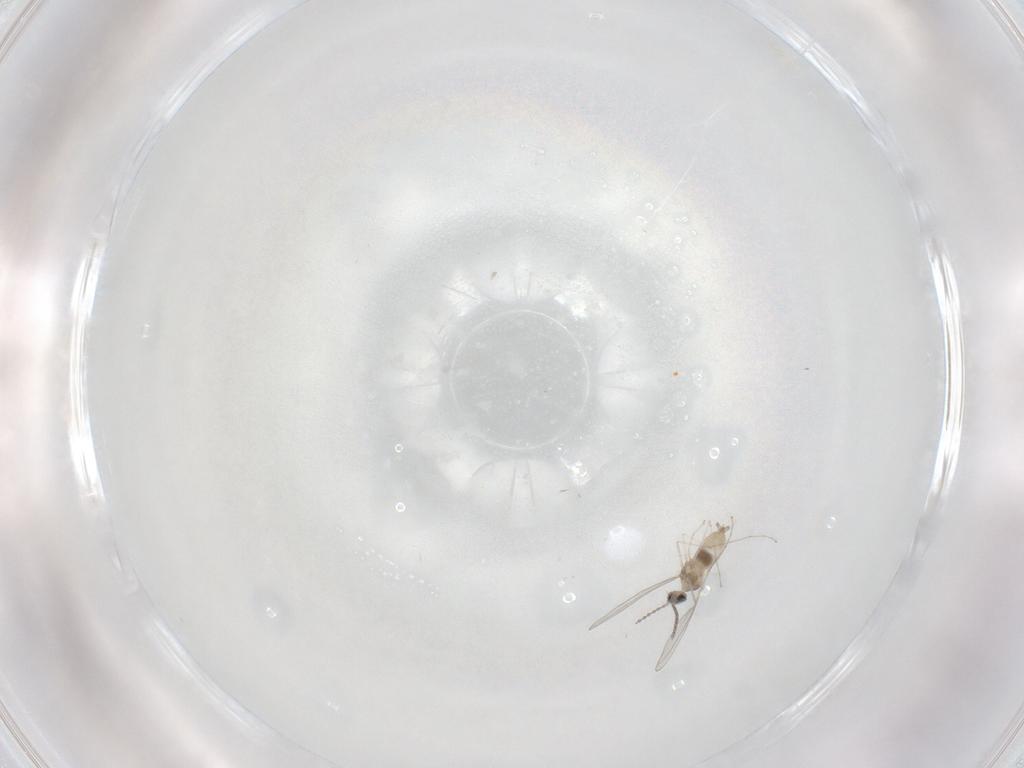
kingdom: Animalia
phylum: Arthropoda
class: Insecta
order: Diptera
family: Cecidomyiidae
